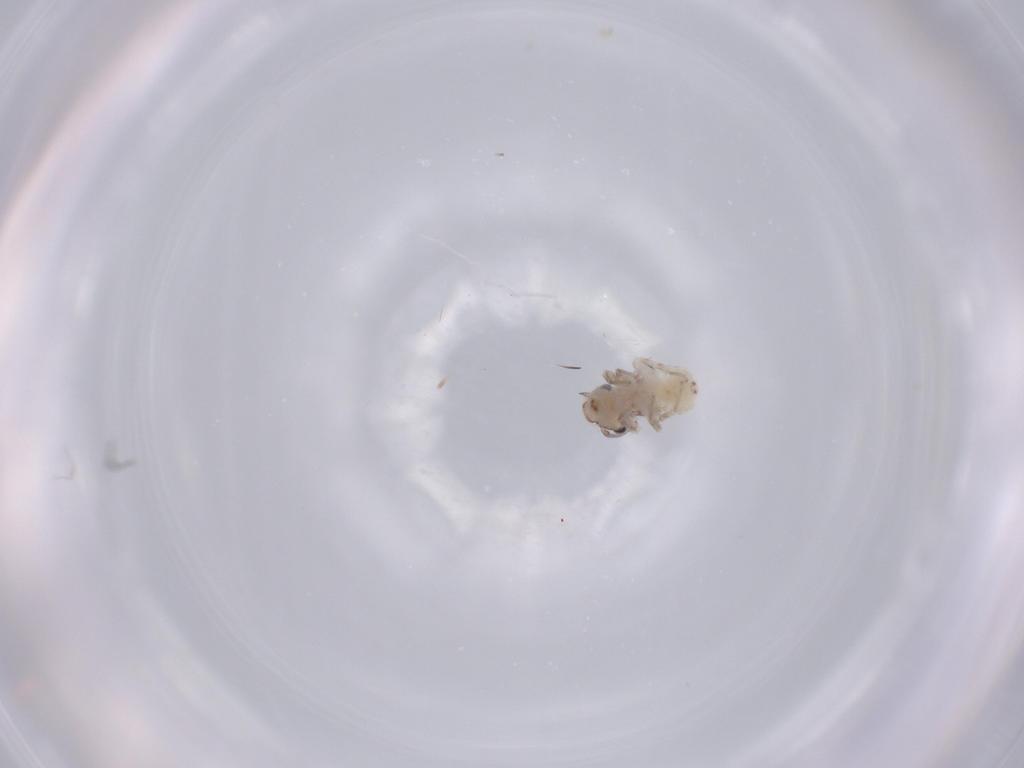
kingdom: Animalia
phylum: Arthropoda
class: Insecta
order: Psocodea
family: Lepidopsocidae
